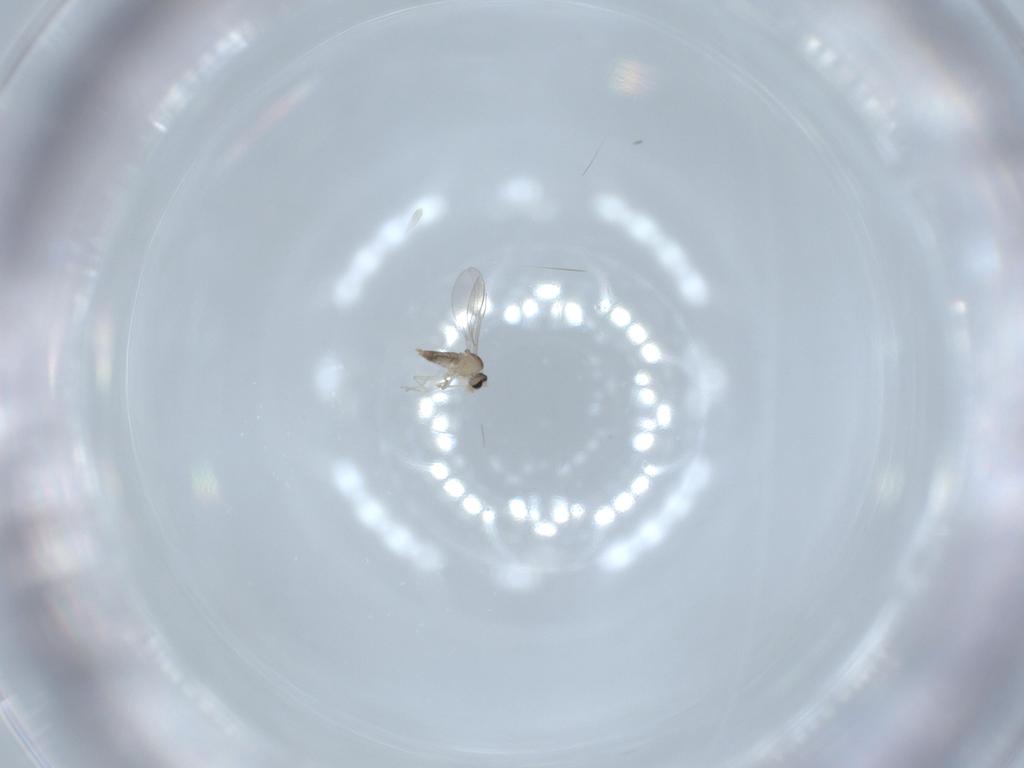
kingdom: Animalia
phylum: Arthropoda
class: Insecta
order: Diptera
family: Cecidomyiidae
